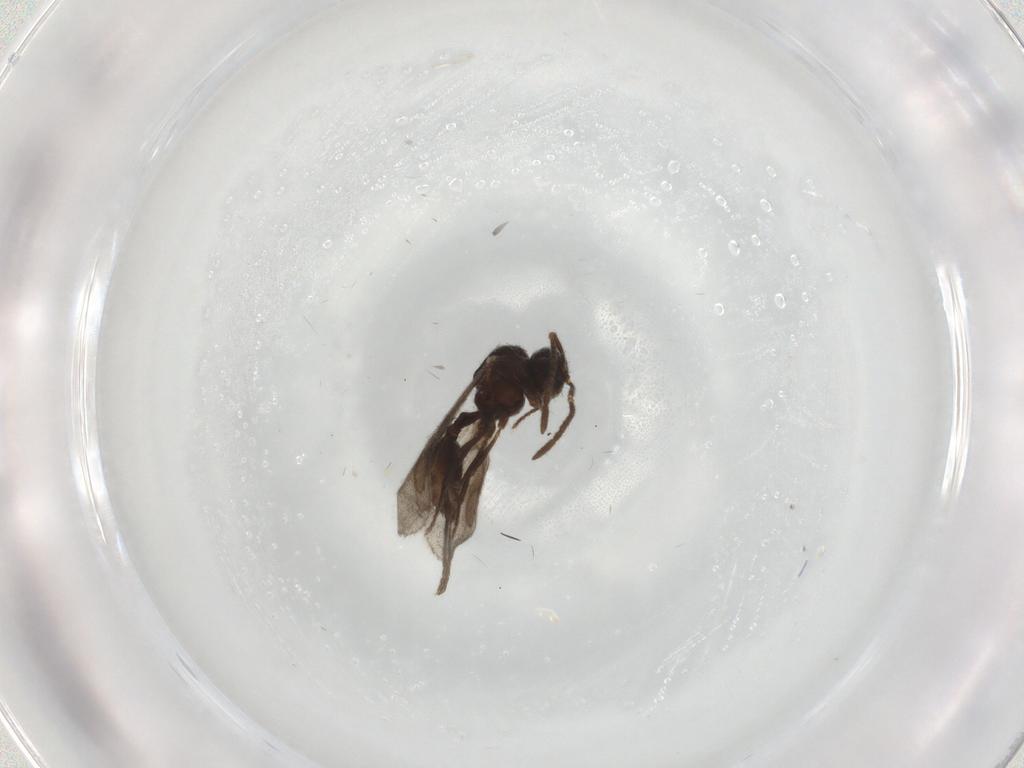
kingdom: Animalia
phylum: Arthropoda
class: Insecta
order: Hymenoptera
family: Formicidae
